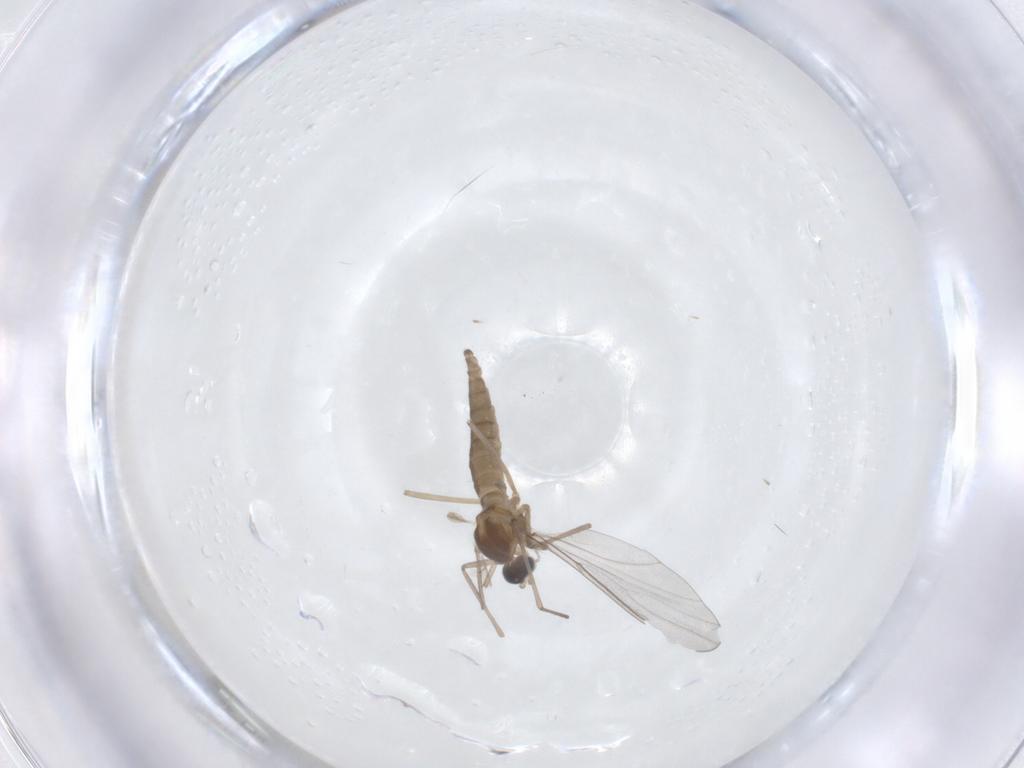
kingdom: Animalia
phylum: Arthropoda
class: Insecta
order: Diptera
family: Cecidomyiidae
